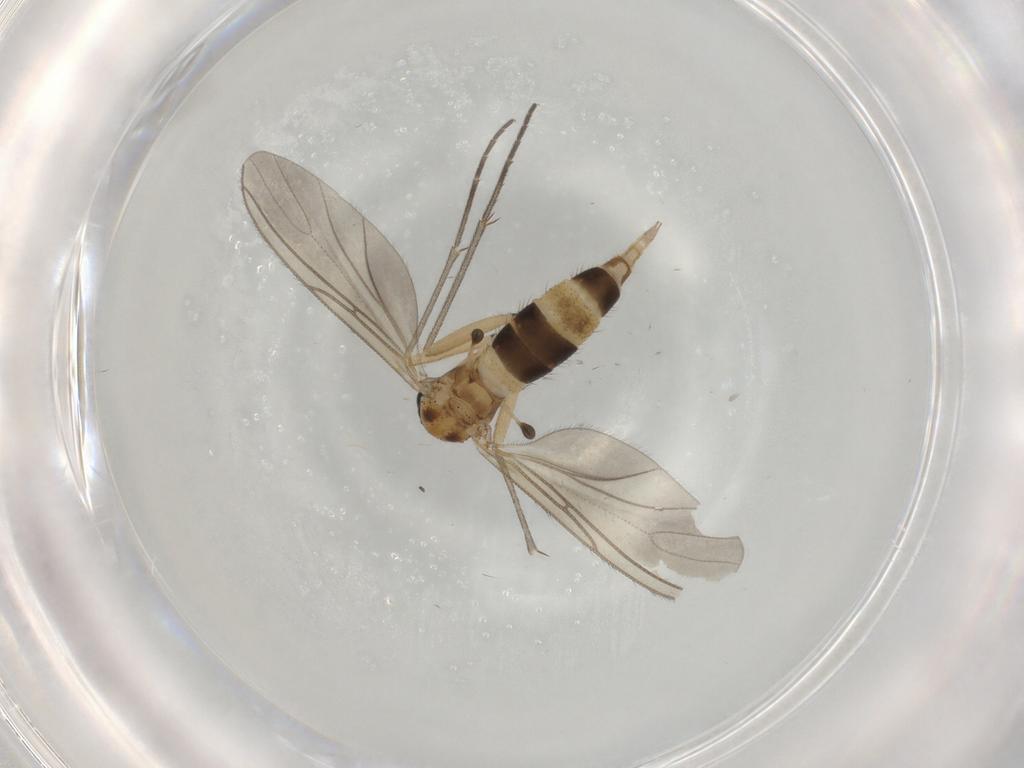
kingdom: Animalia
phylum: Arthropoda
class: Insecta
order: Diptera
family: Sciaridae
